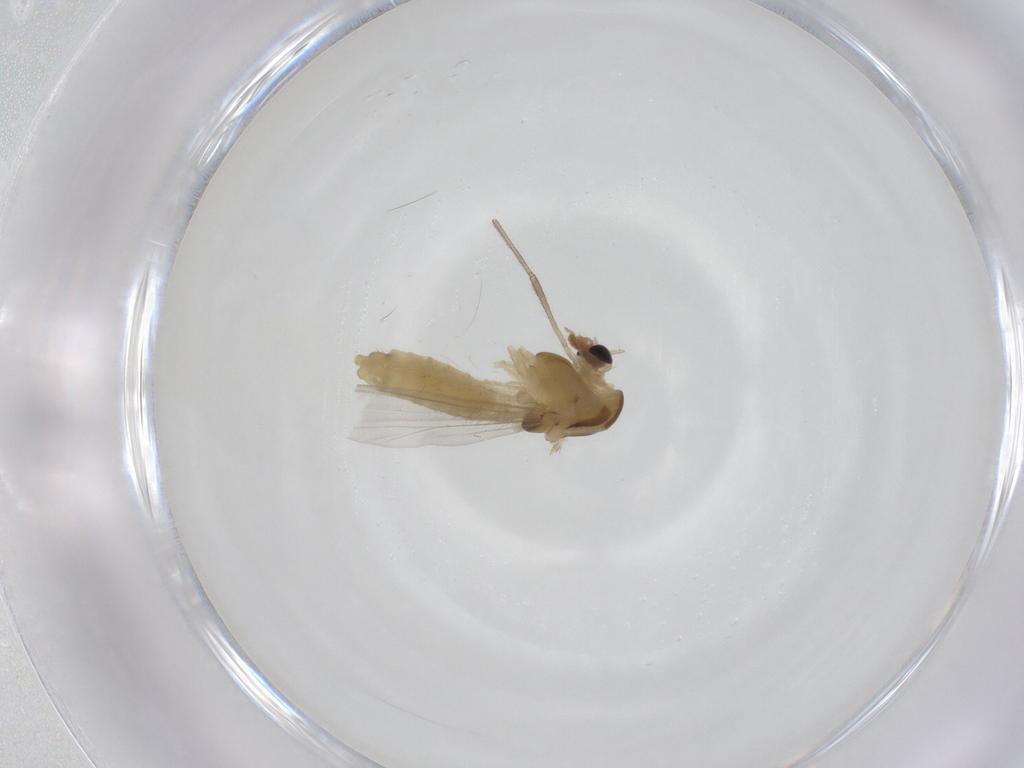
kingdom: Animalia
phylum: Arthropoda
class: Insecta
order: Diptera
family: Chironomidae
